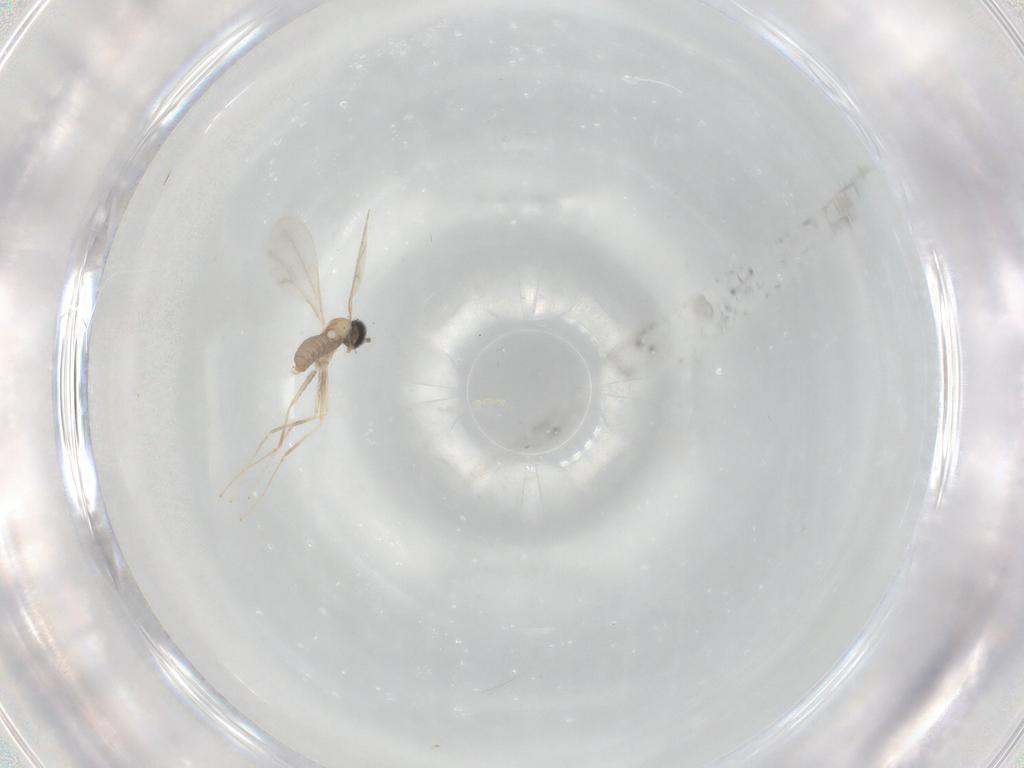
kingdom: Animalia
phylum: Arthropoda
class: Insecta
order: Diptera
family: Cecidomyiidae
